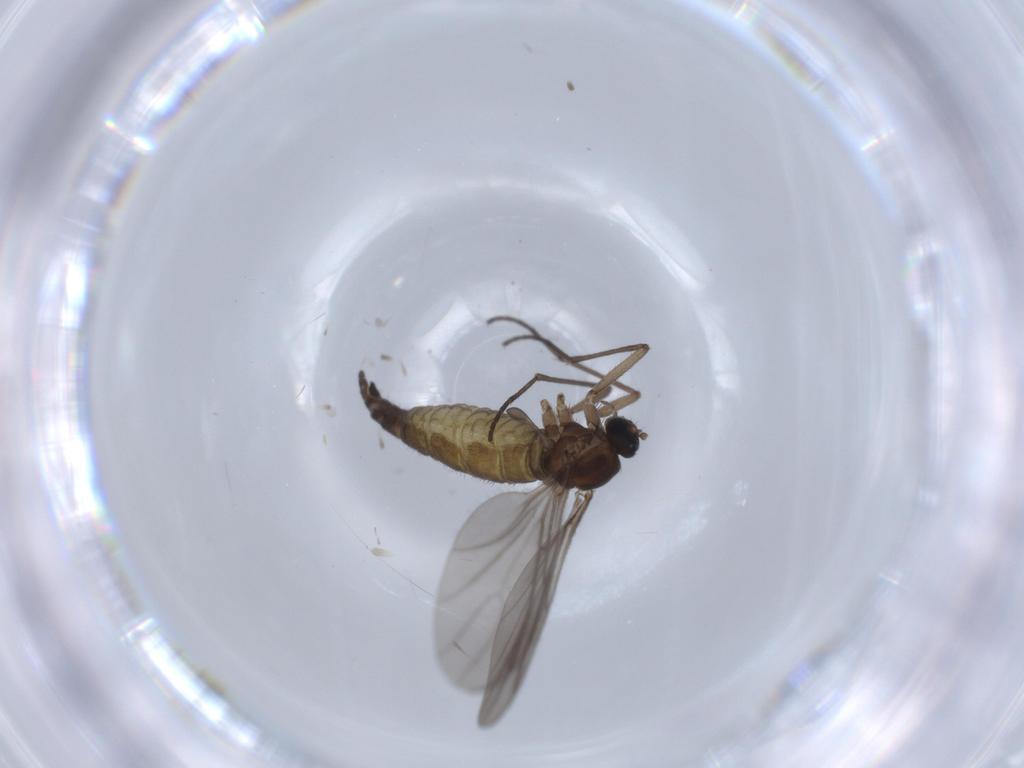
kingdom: Animalia
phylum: Arthropoda
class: Insecta
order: Diptera
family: Sciaridae
